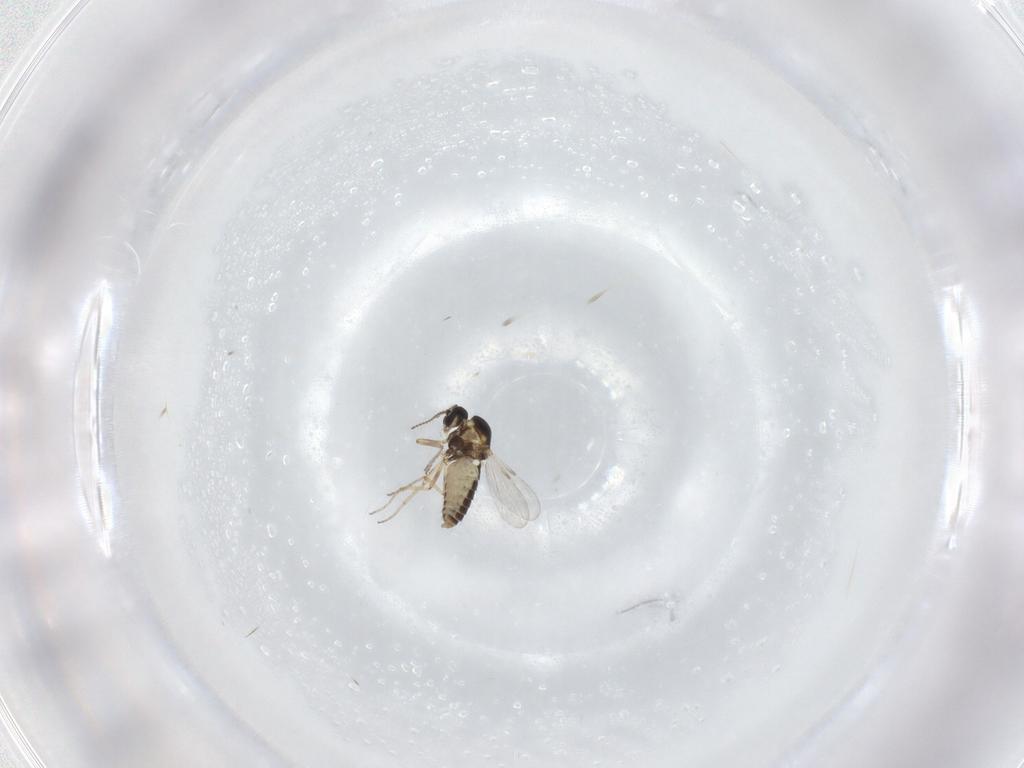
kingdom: Animalia
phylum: Arthropoda
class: Insecta
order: Diptera
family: Ceratopogonidae
